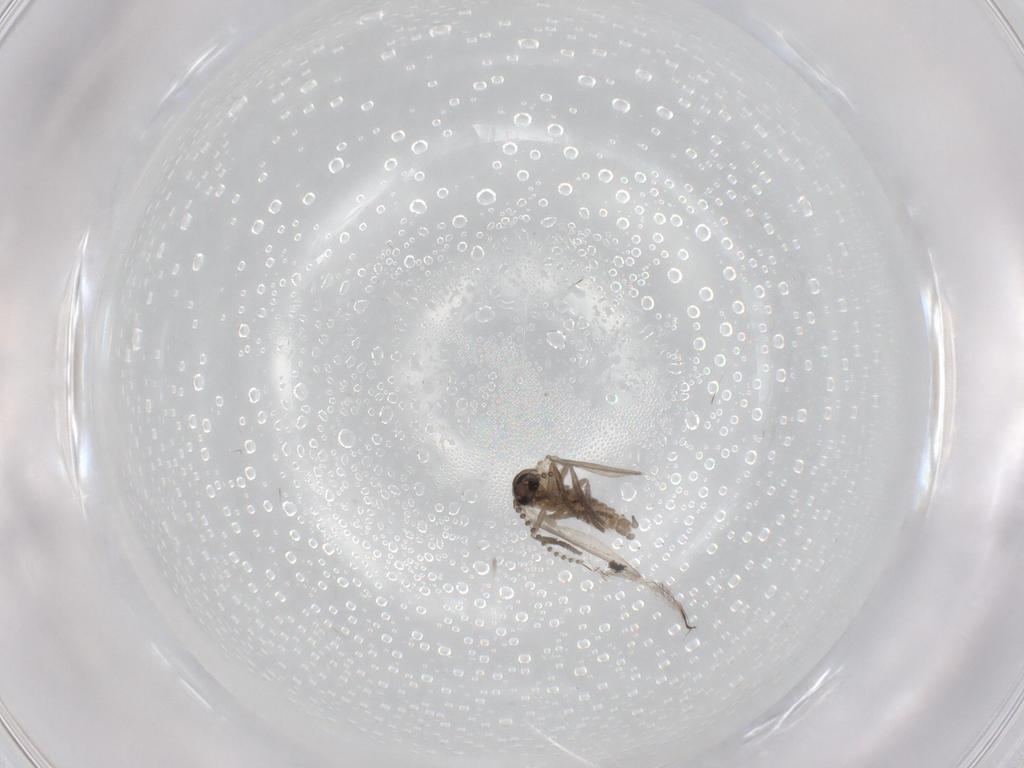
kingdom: Animalia
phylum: Arthropoda
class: Insecta
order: Diptera
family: Psychodidae
